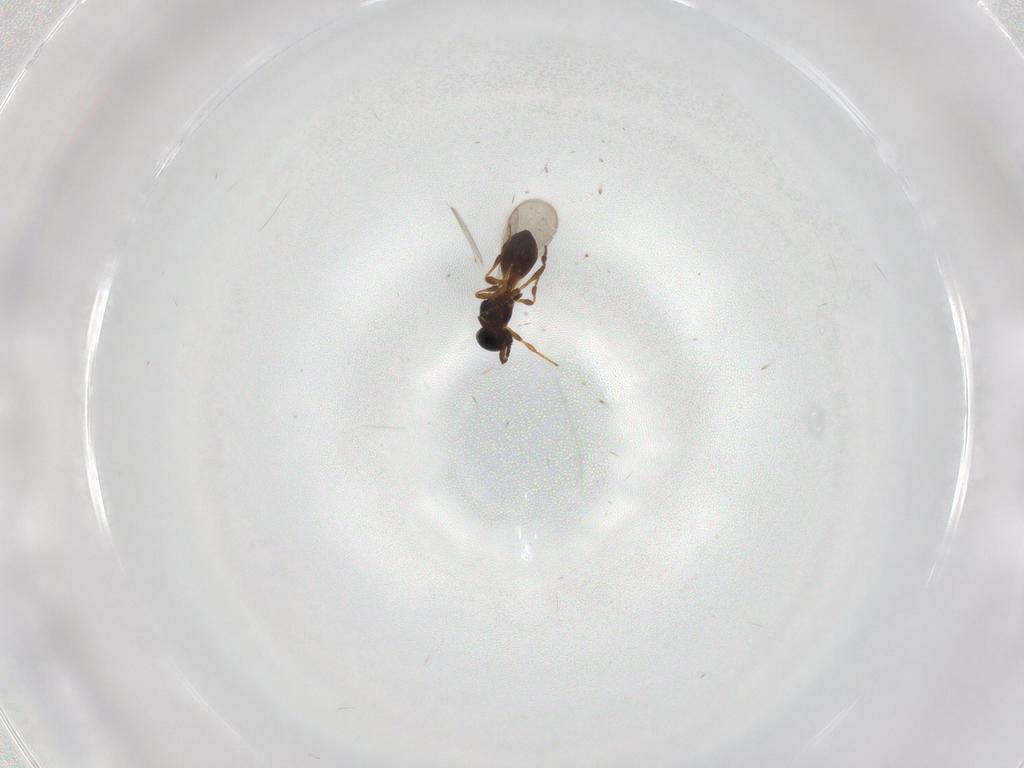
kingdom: Animalia
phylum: Arthropoda
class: Insecta
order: Hymenoptera
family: Platygastridae
